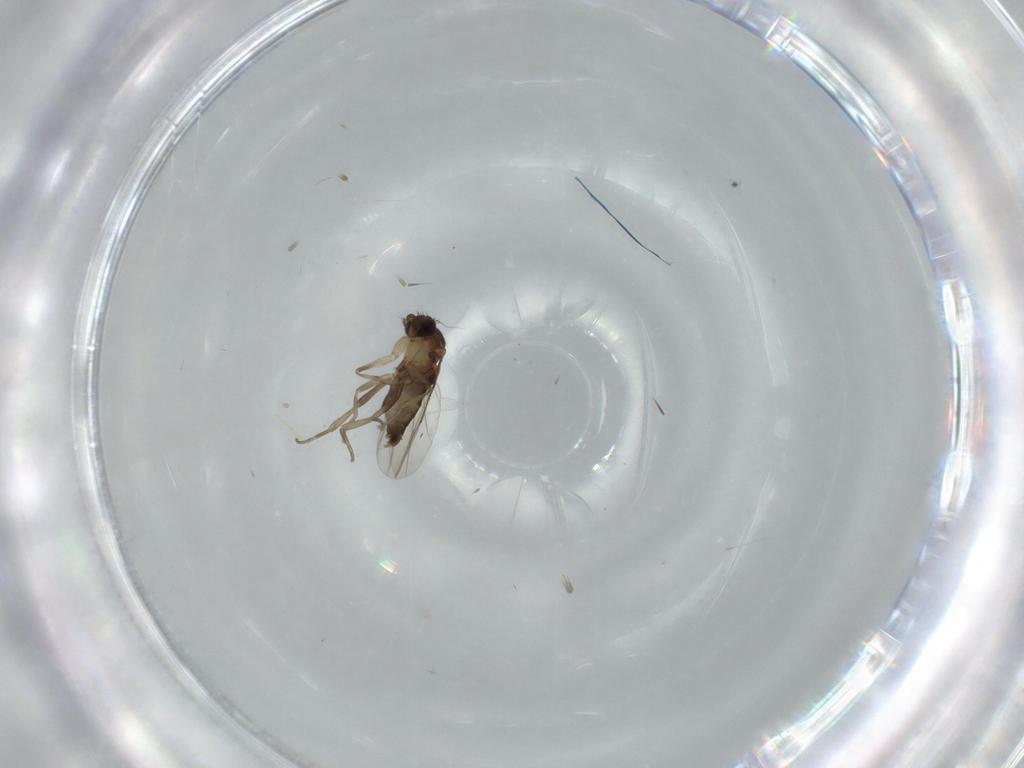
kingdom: Animalia
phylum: Arthropoda
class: Insecta
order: Diptera
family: Phoridae
